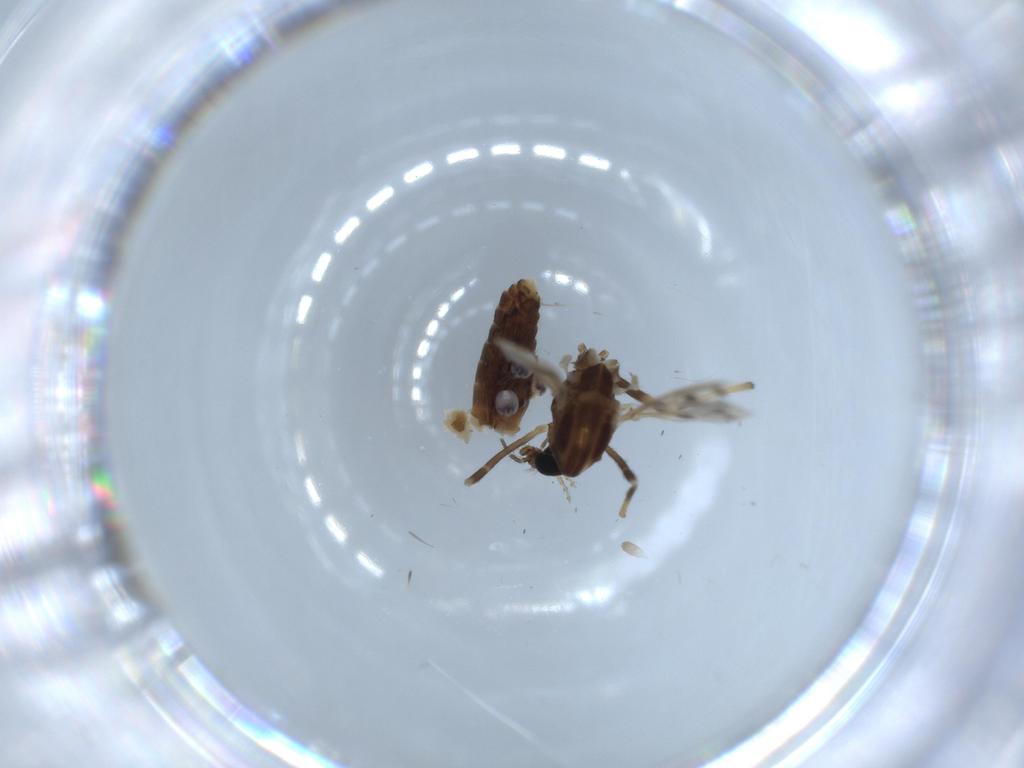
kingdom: Animalia
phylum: Arthropoda
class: Insecta
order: Diptera
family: Chironomidae
